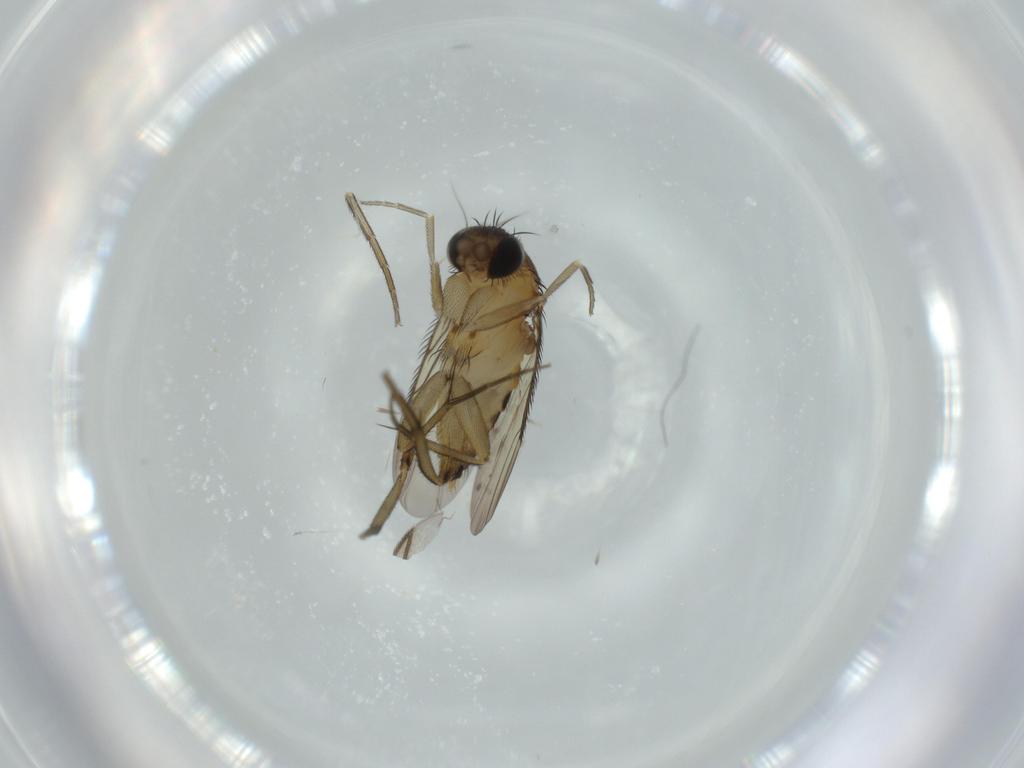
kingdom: Animalia
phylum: Arthropoda
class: Insecta
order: Diptera
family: Phoridae
